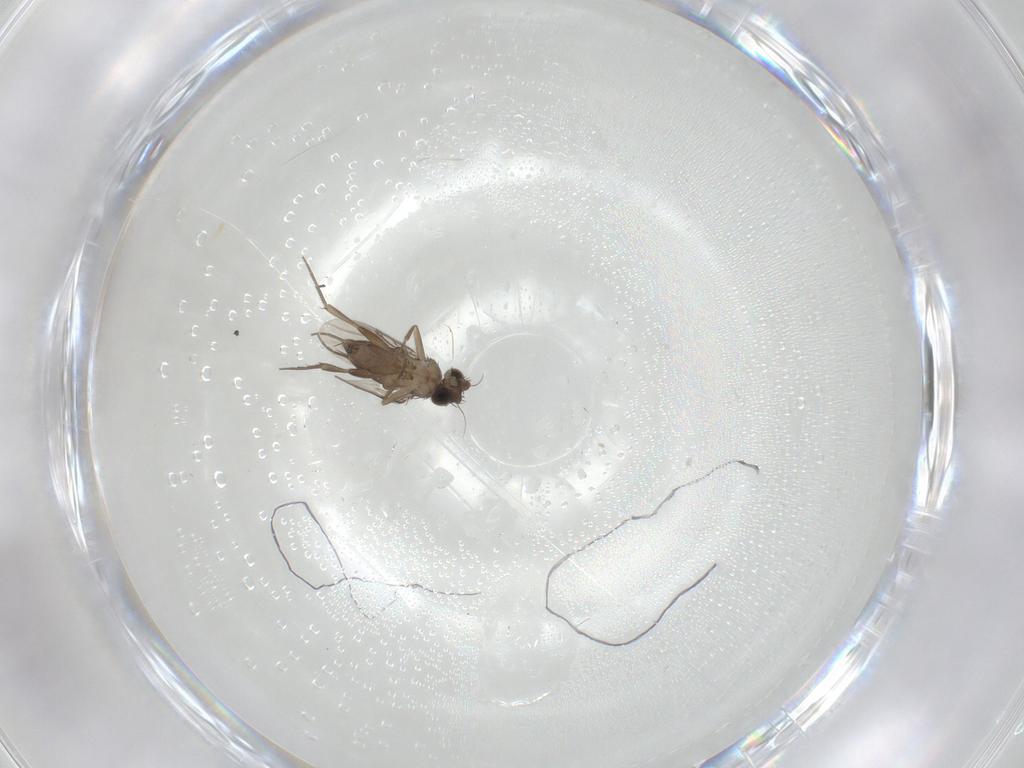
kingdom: Animalia
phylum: Arthropoda
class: Insecta
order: Diptera
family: Phoridae
